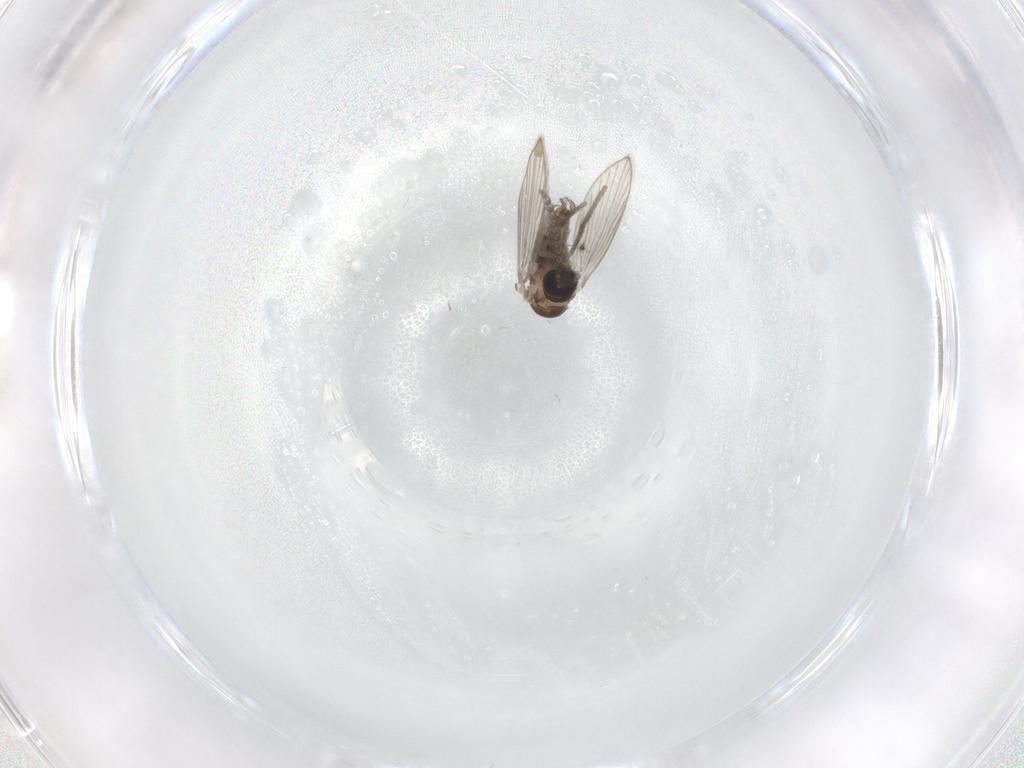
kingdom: Animalia
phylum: Arthropoda
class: Insecta
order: Diptera
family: Psychodidae
